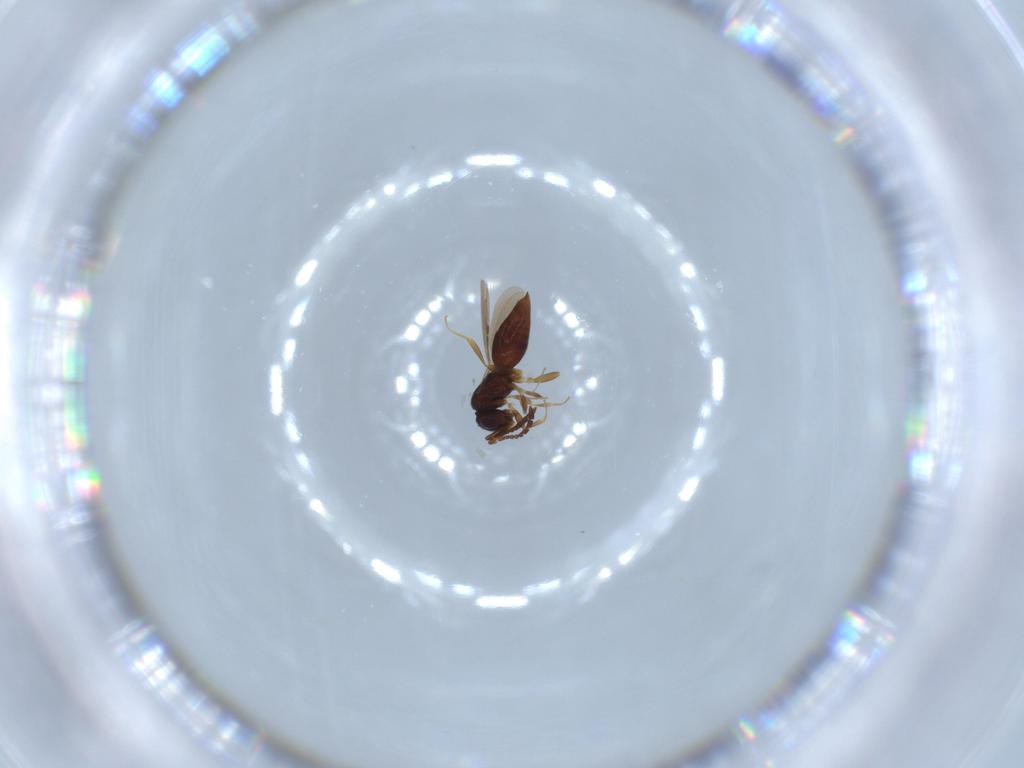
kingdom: Animalia
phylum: Arthropoda
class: Insecta
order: Hymenoptera
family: Ceraphronidae
